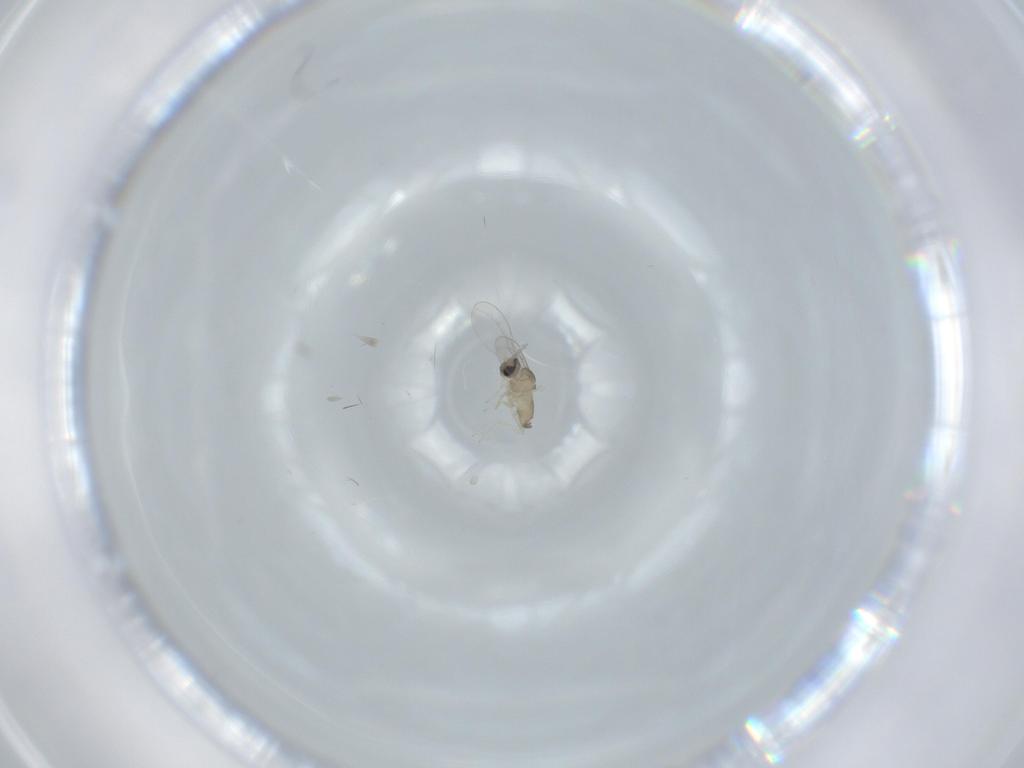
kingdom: Animalia
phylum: Arthropoda
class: Insecta
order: Diptera
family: Cecidomyiidae
